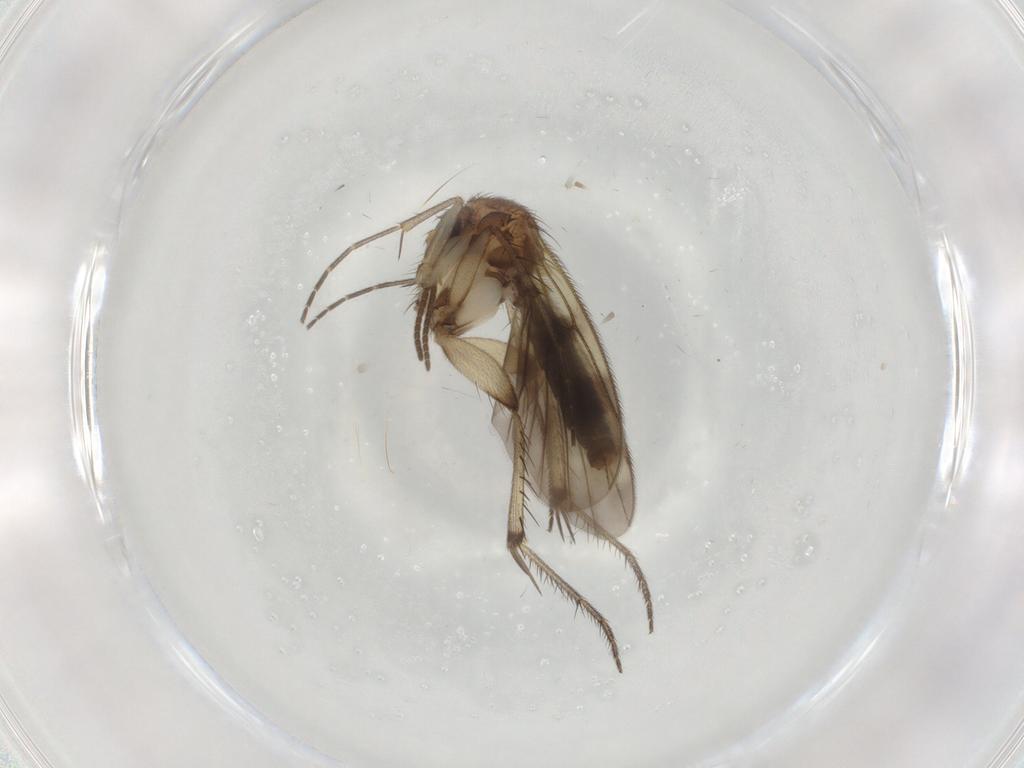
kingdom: Animalia
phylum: Arthropoda
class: Insecta
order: Diptera
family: Mycetophilidae
